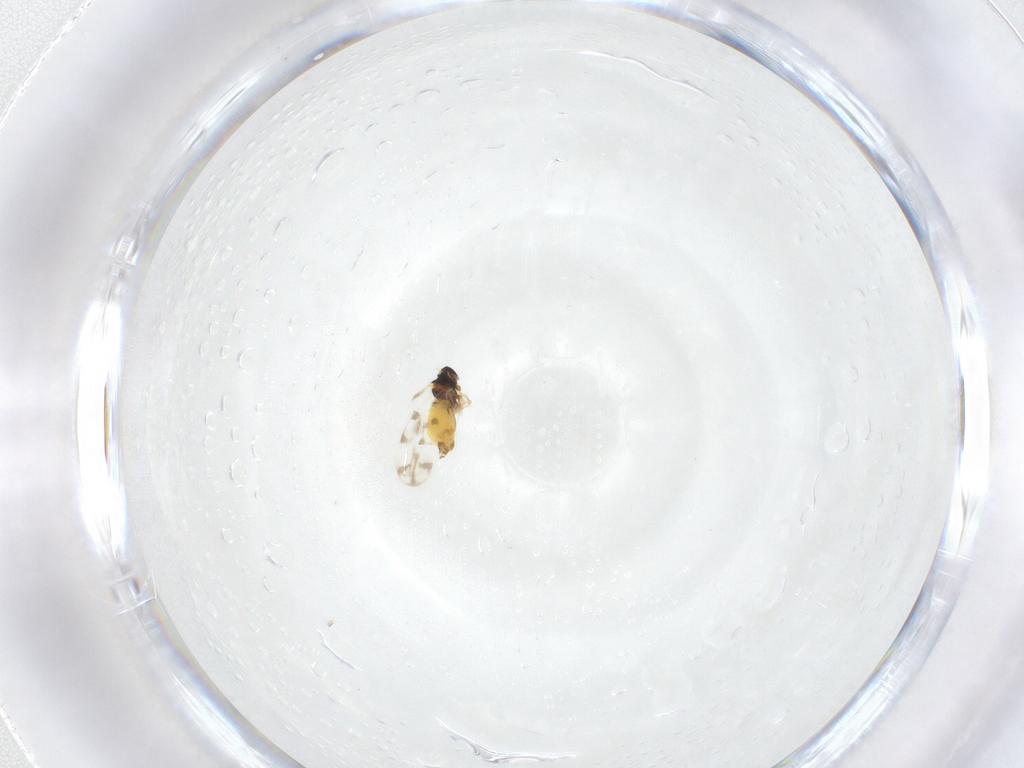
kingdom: Animalia
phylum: Arthropoda
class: Insecta
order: Hemiptera
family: Aleyrodidae
